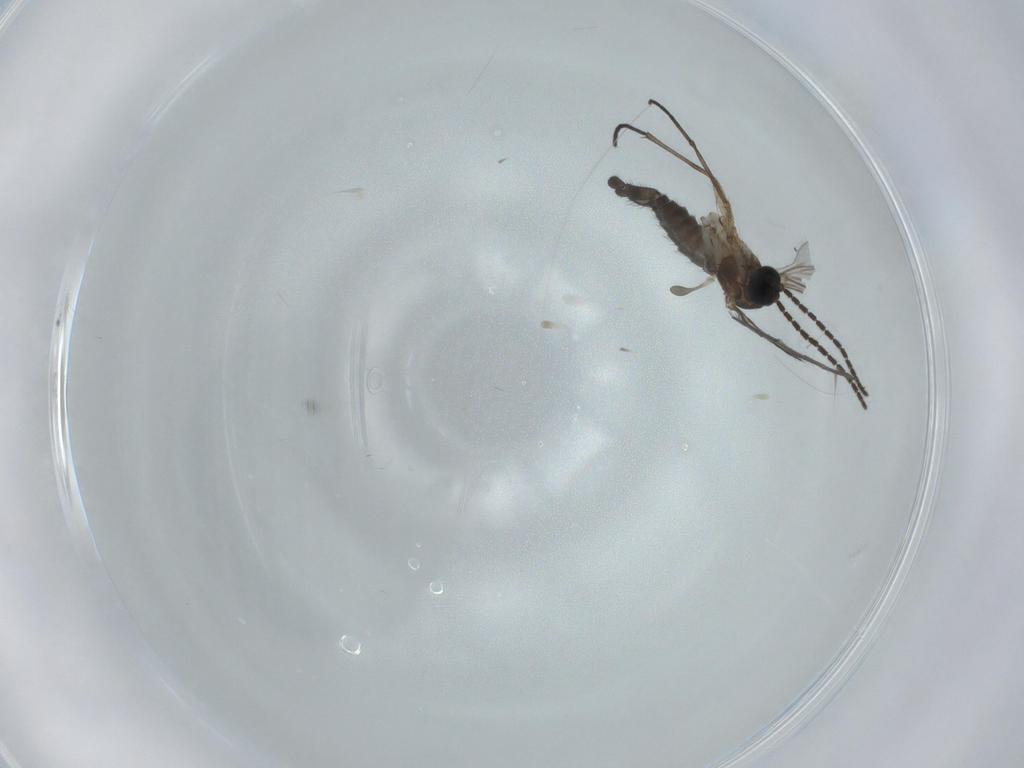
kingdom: Animalia
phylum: Arthropoda
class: Insecta
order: Diptera
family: Sciaridae
